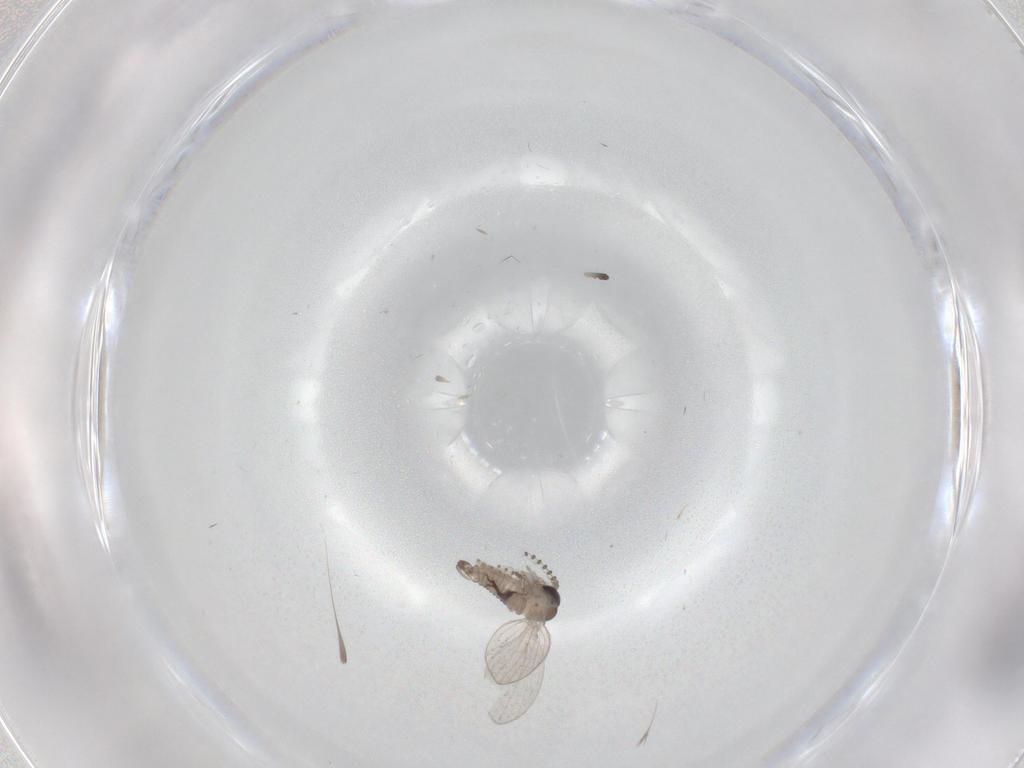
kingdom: Animalia
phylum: Arthropoda
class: Insecta
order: Diptera
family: Psychodidae
